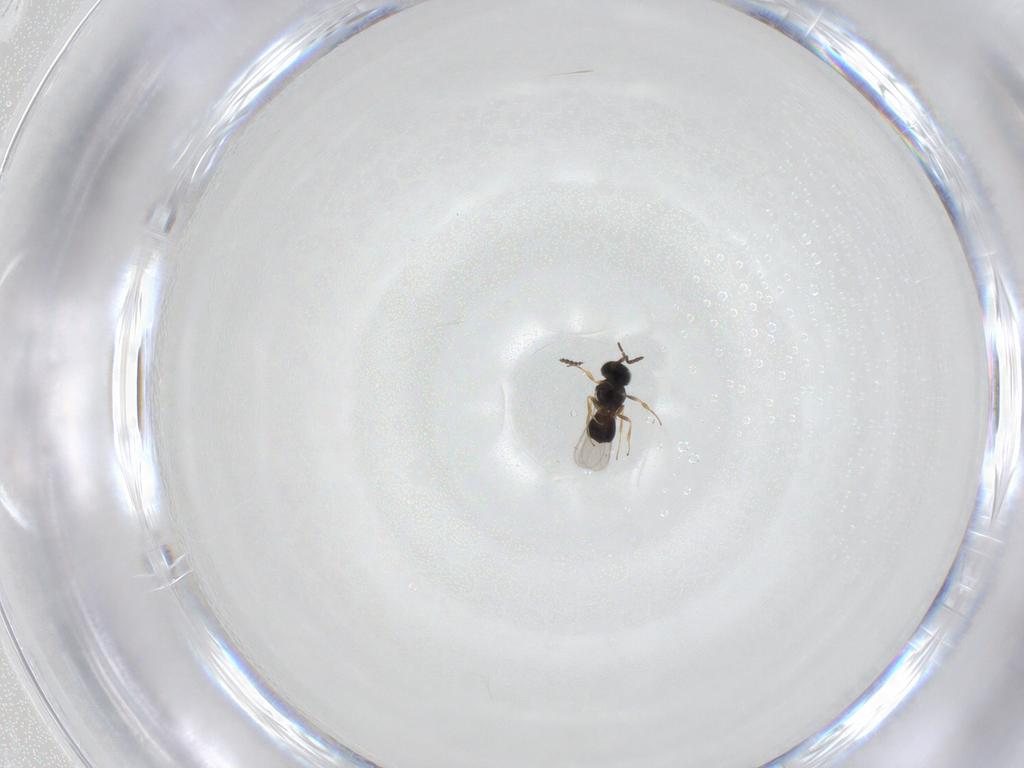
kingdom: Animalia
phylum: Arthropoda
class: Insecta
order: Hymenoptera
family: Scelionidae
